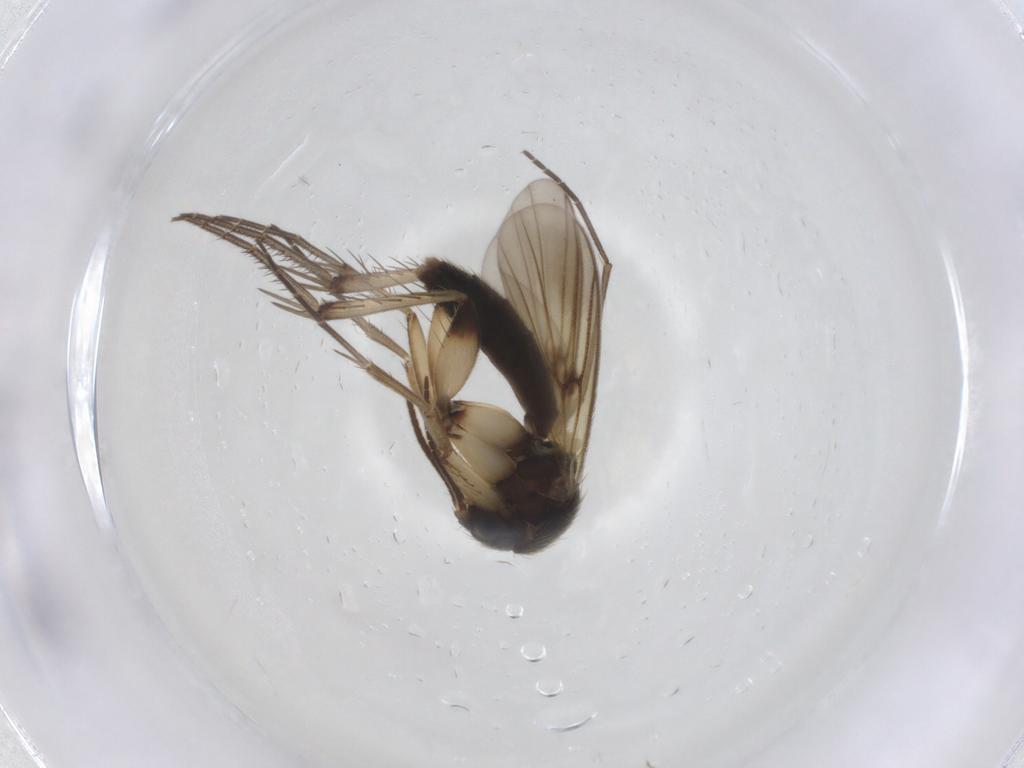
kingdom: Animalia
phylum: Arthropoda
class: Insecta
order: Diptera
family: Mycetophilidae
